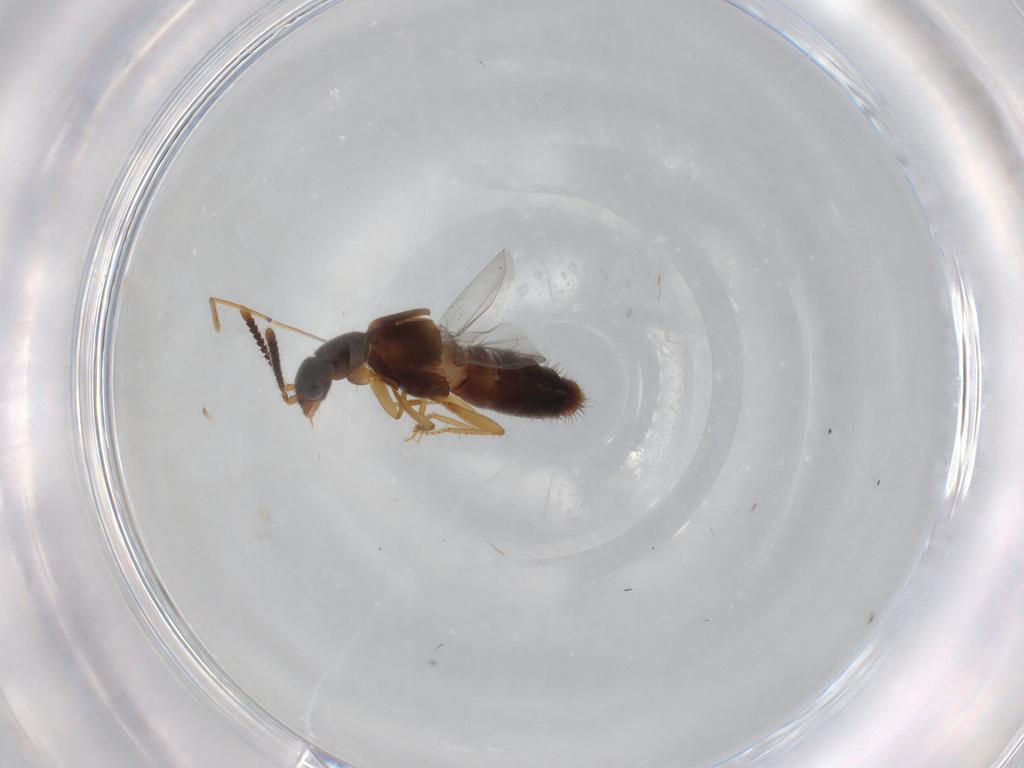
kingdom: Animalia
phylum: Arthropoda
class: Insecta
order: Coleoptera
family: Staphylinidae
